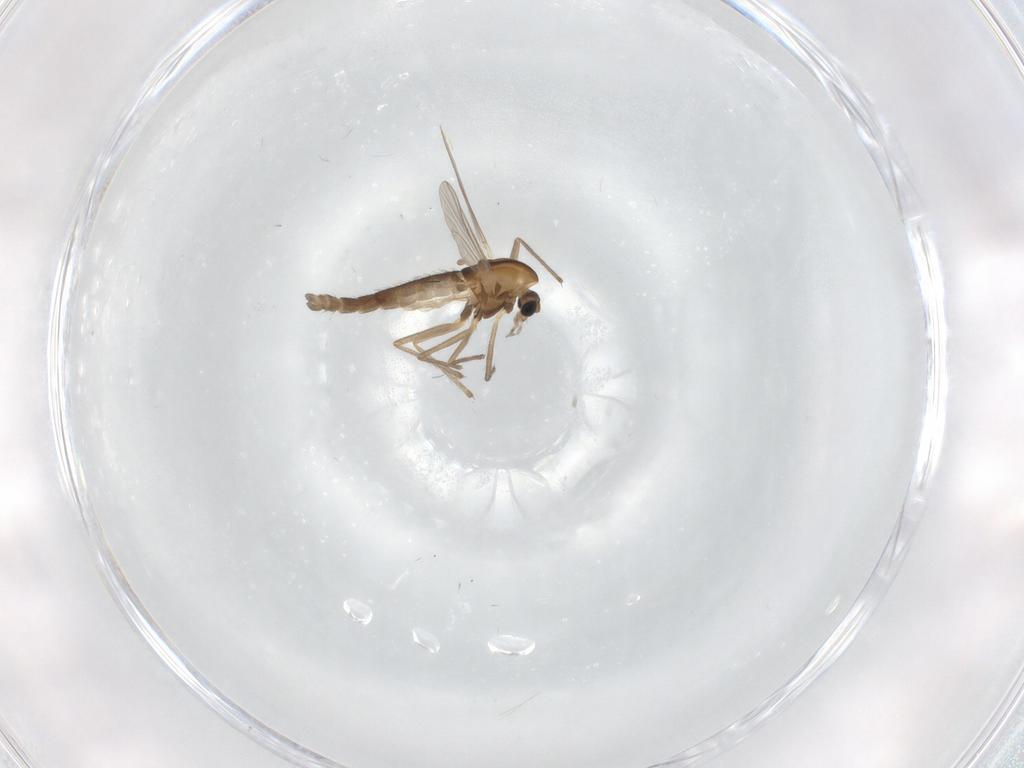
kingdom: Animalia
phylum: Arthropoda
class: Insecta
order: Diptera
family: Chironomidae
